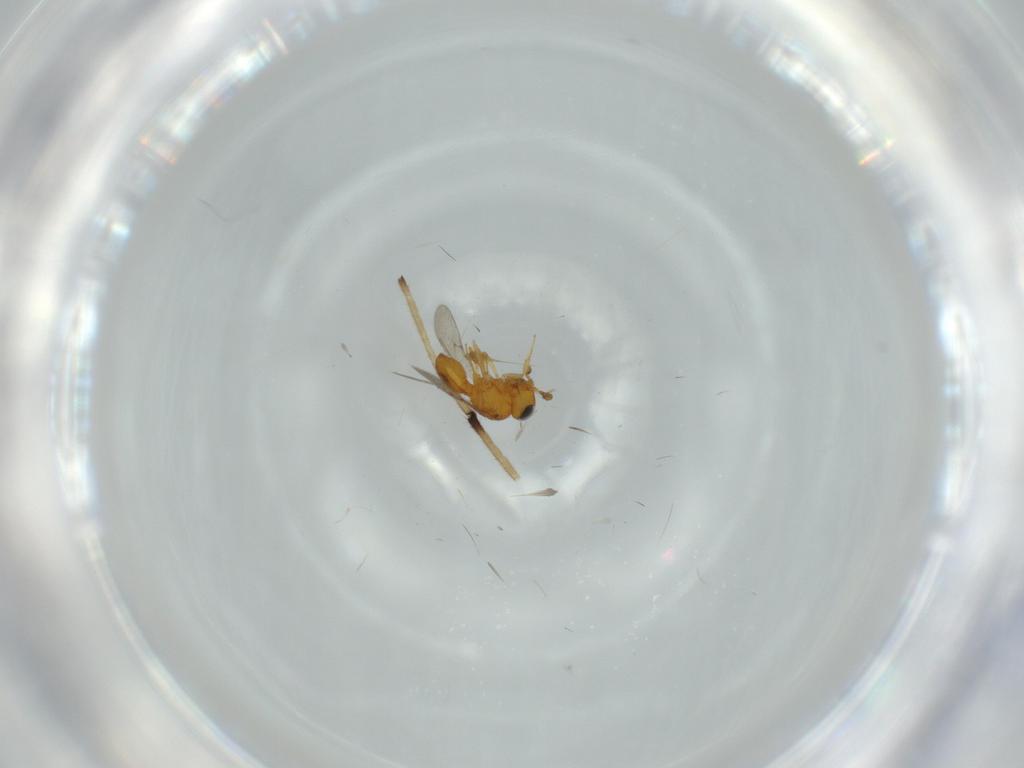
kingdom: Animalia
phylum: Arthropoda
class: Insecta
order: Hymenoptera
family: Scelionidae
